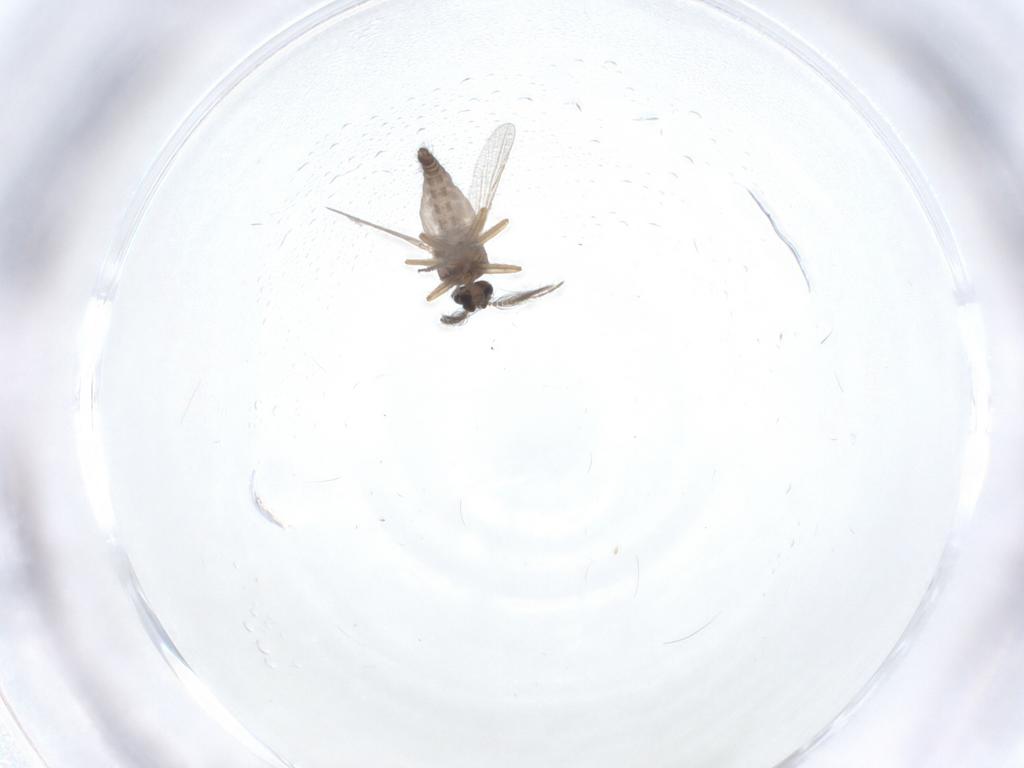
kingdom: Animalia
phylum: Arthropoda
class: Insecta
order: Diptera
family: Ceratopogonidae
